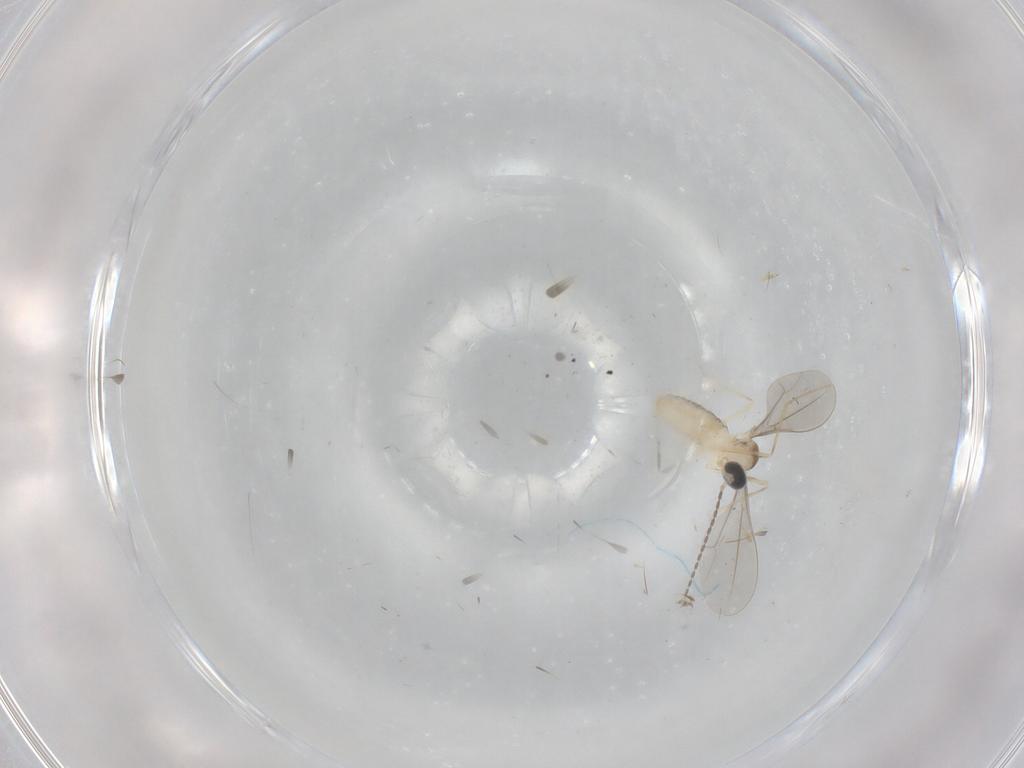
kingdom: Animalia
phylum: Arthropoda
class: Insecta
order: Diptera
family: Cecidomyiidae
